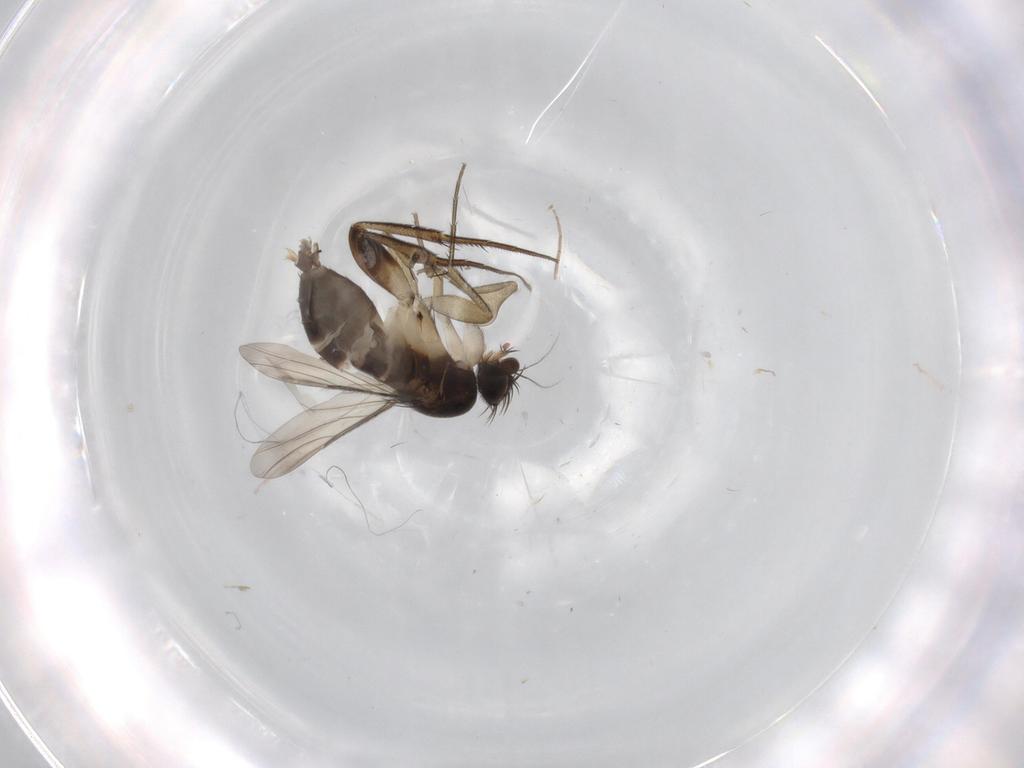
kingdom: Animalia
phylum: Arthropoda
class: Insecta
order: Diptera
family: Phoridae
